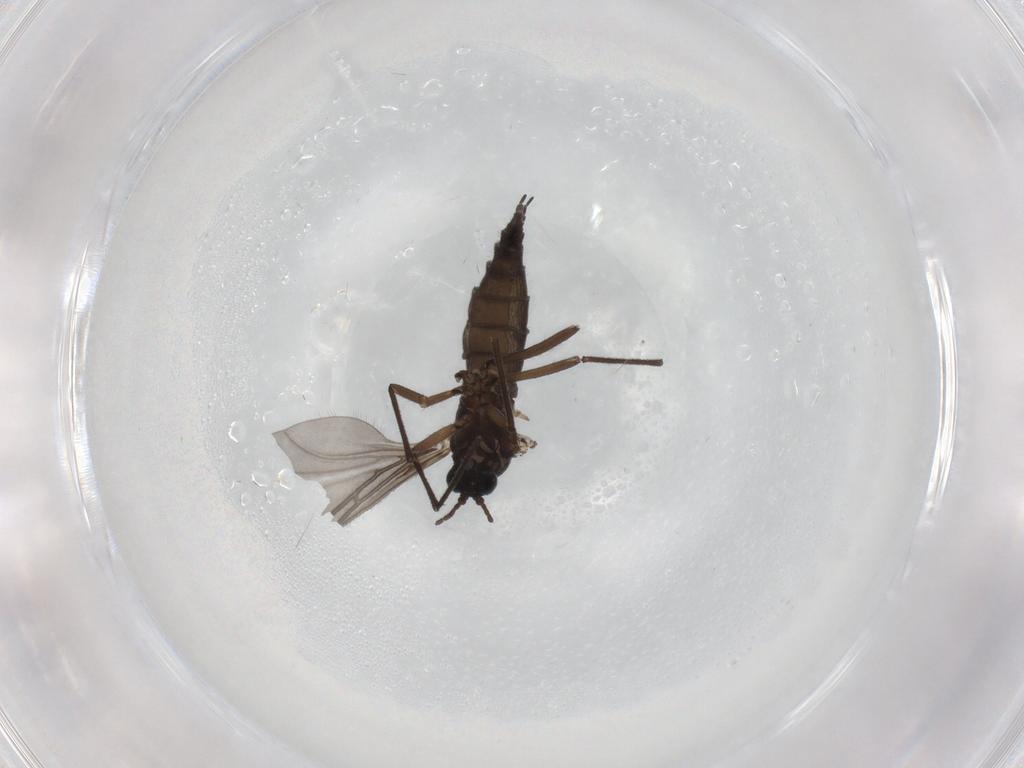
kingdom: Animalia
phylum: Arthropoda
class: Insecta
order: Diptera
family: Sciaridae
